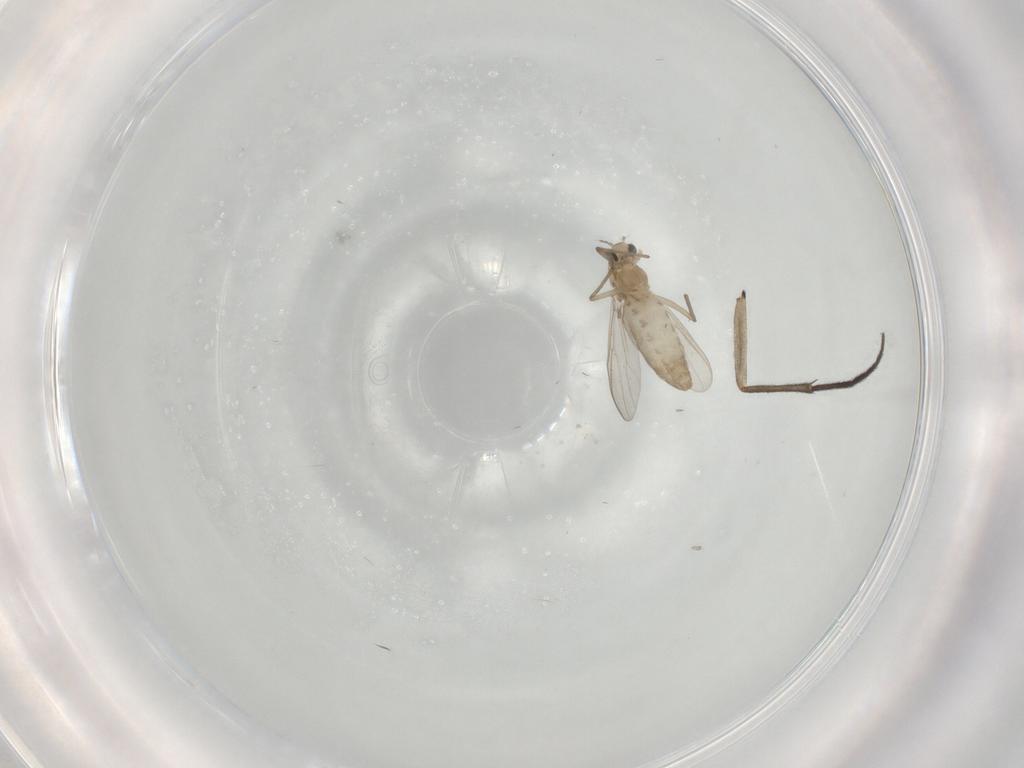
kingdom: Animalia
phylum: Arthropoda
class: Insecta
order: Diptera
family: Chironomidae
